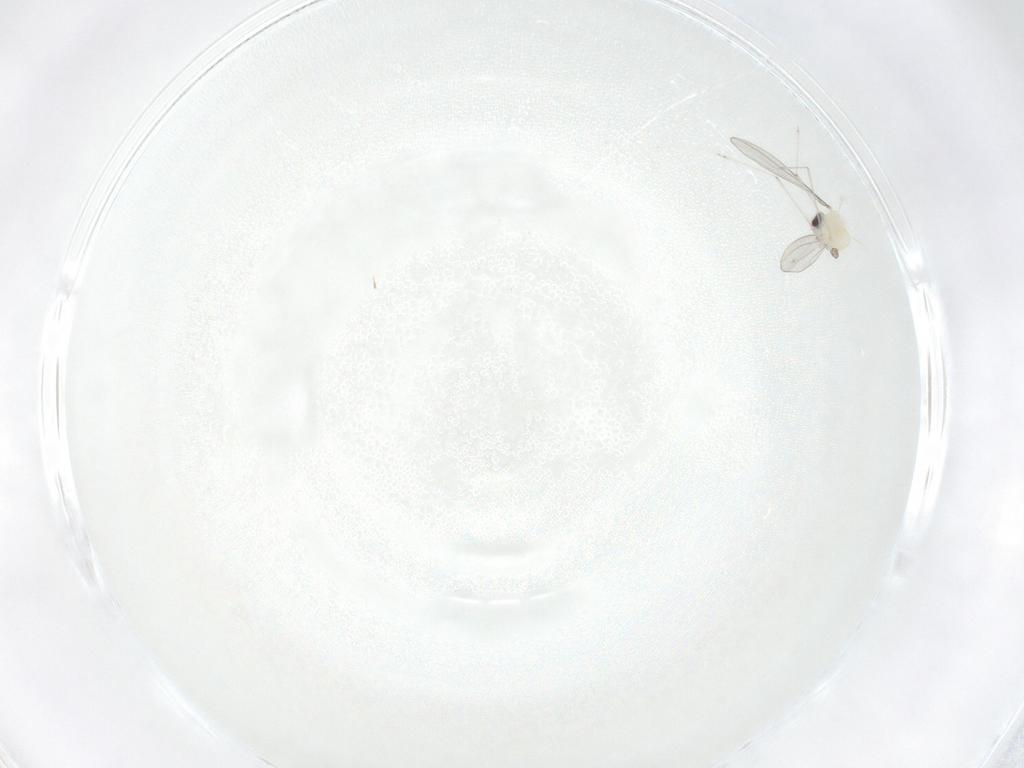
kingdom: Animalia
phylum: Arthropoda
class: Insecta
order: Diptera
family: Cecidomyiidae
